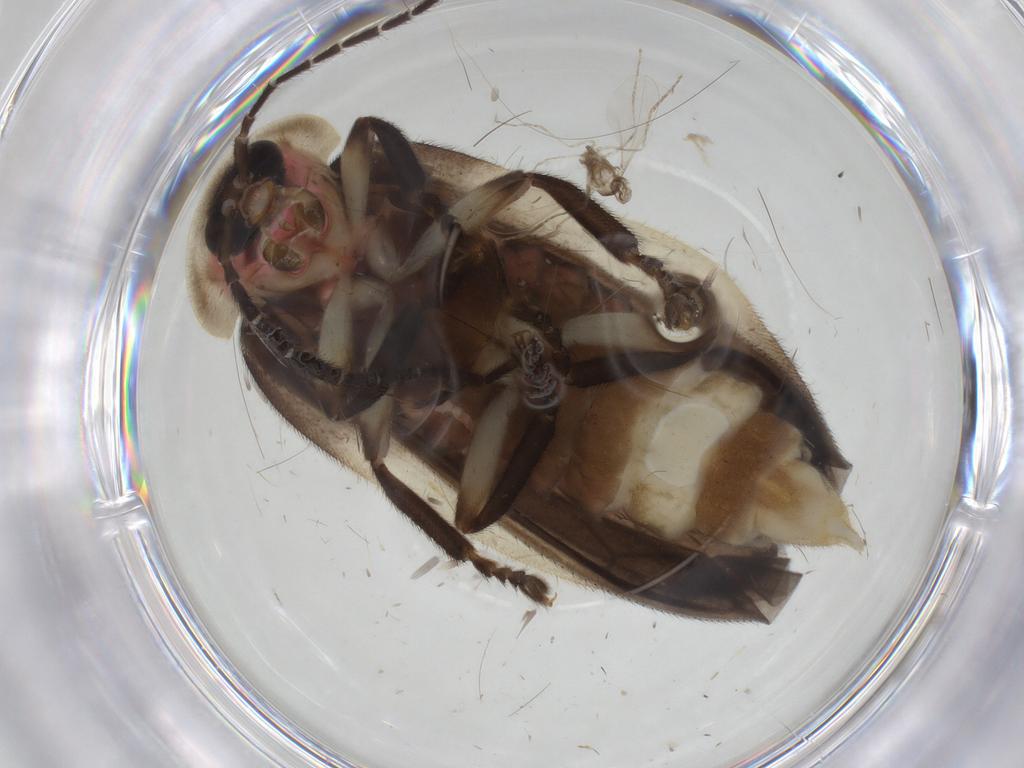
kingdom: Animalia
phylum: Arthropoda
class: Insecta
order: Coleoptera
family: Lampyridae
